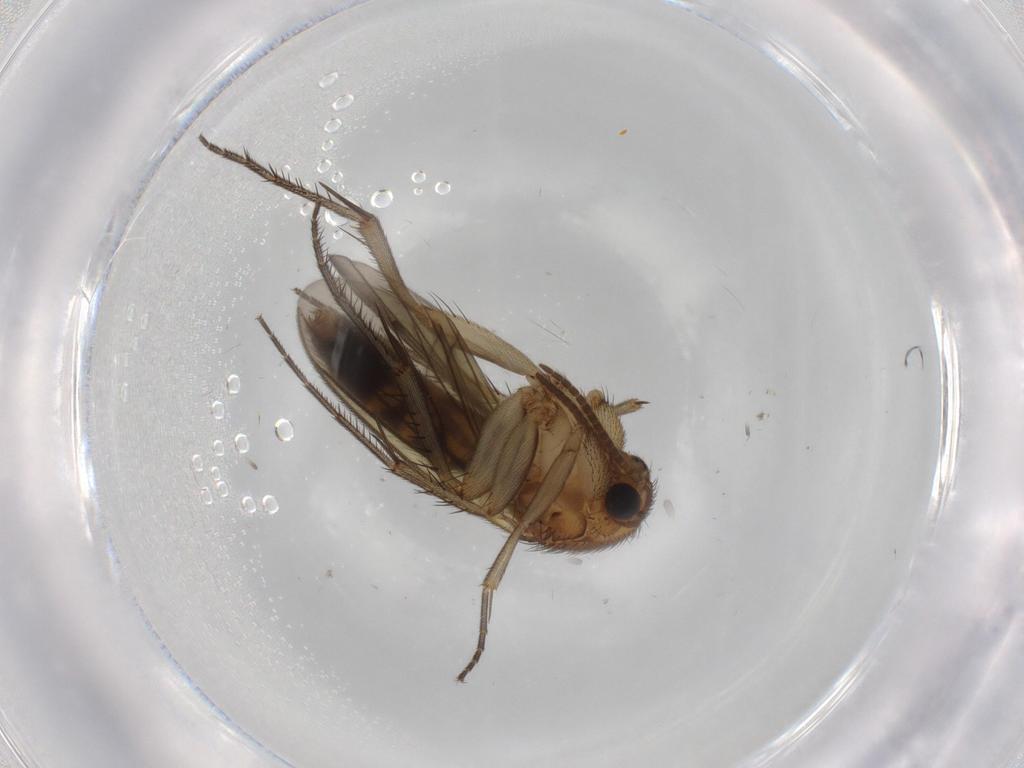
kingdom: Animalia
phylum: Arthropoda
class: Insecta
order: Diptera
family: Mycetophilidae
